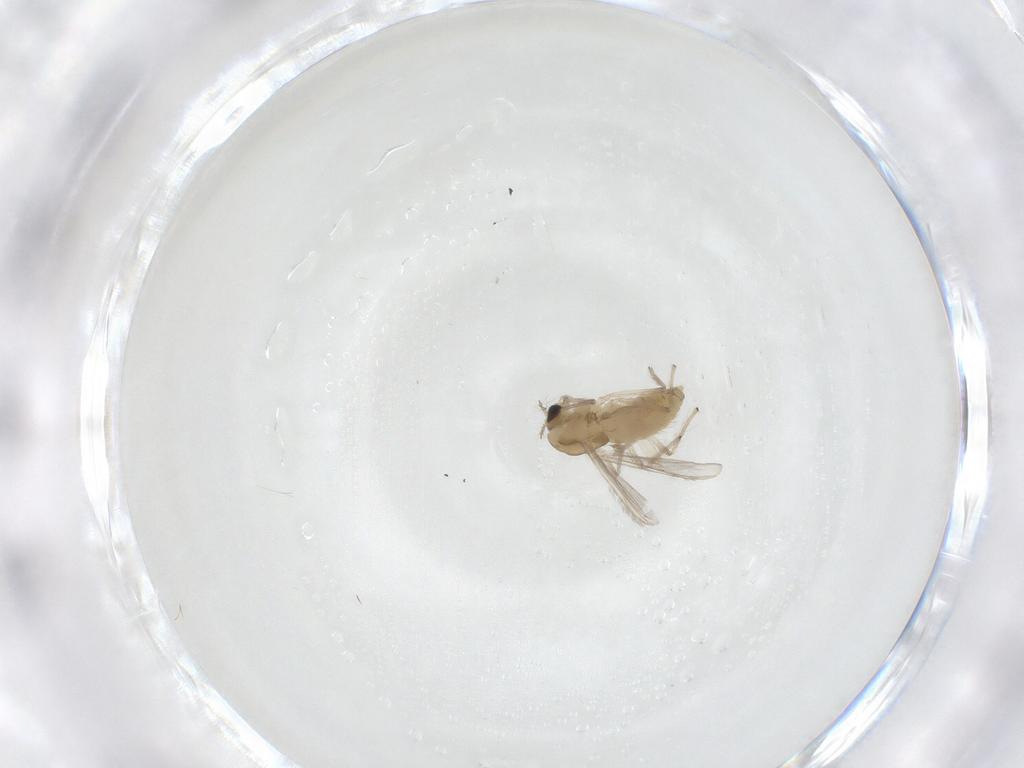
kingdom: Animalia
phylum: Arthropoda
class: Insecta
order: Diptera
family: Chironomidae
